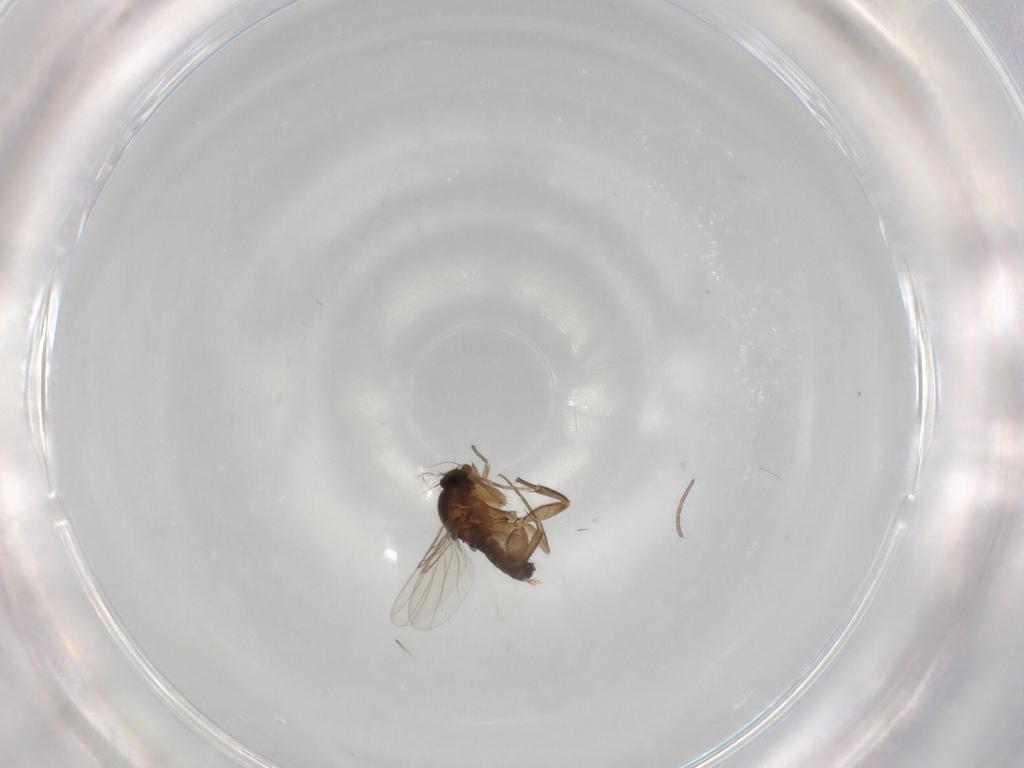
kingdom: Animalia
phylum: Arthropoda
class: Insecta
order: Diptera
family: Phoridae
